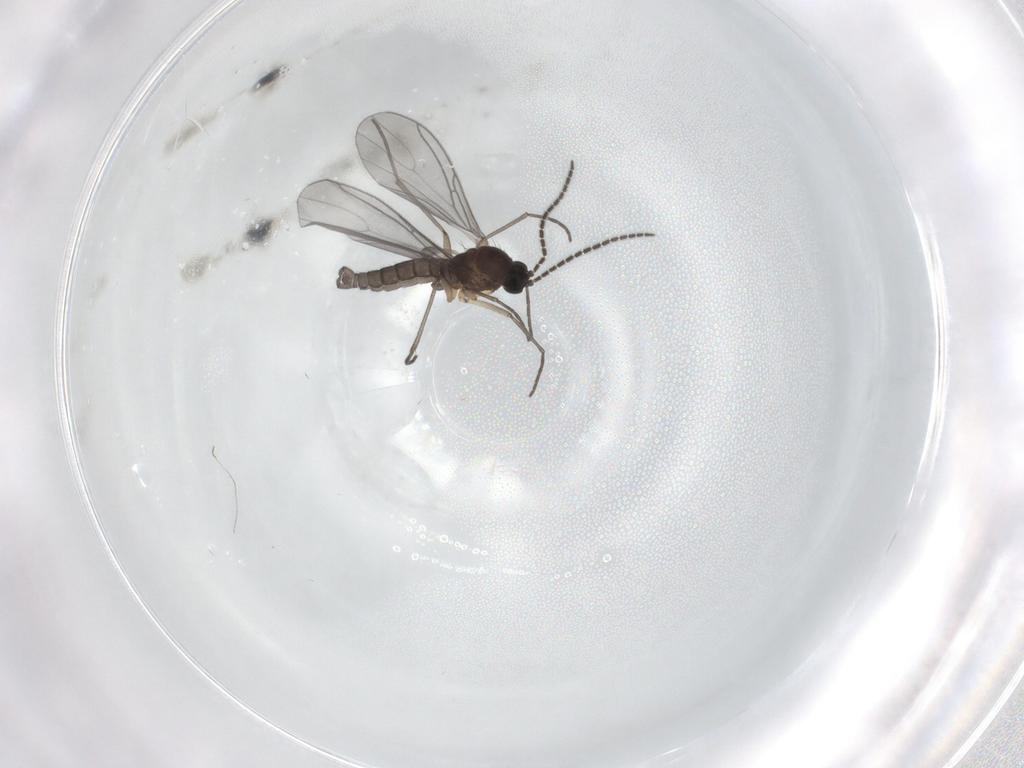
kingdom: Animalia
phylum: Arthropoda
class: Insecta
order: Diptera
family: Sciaridae
